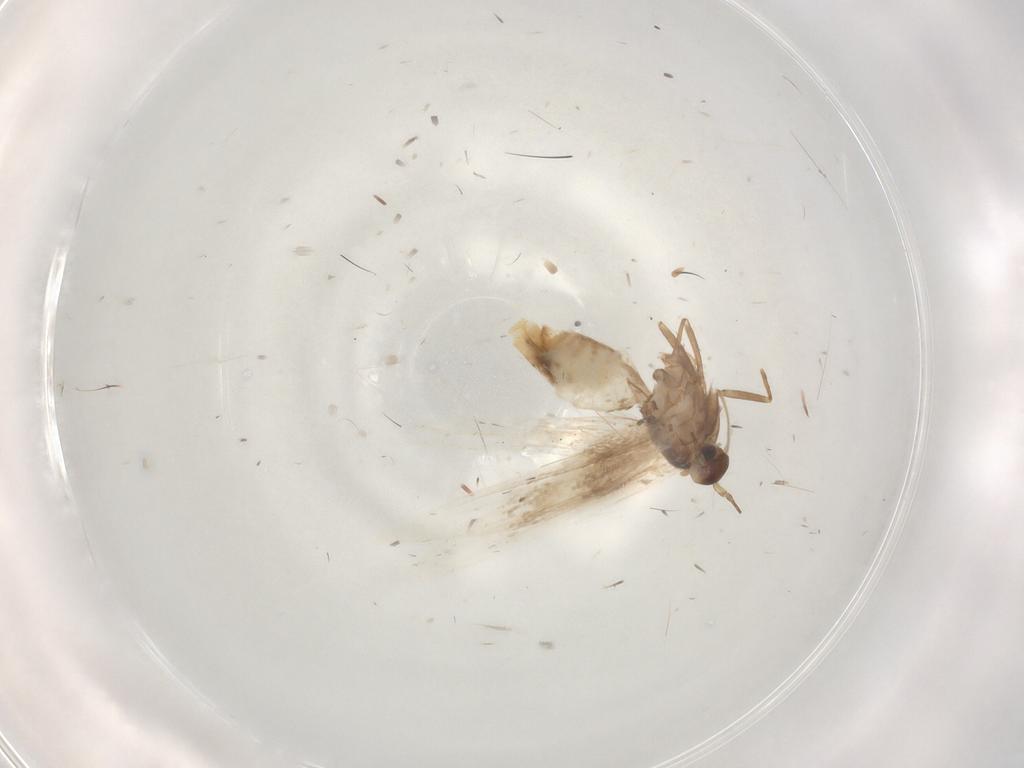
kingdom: Animalia
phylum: Arthropoda
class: Insecta
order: Lepidoptera
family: Gracillariidae
